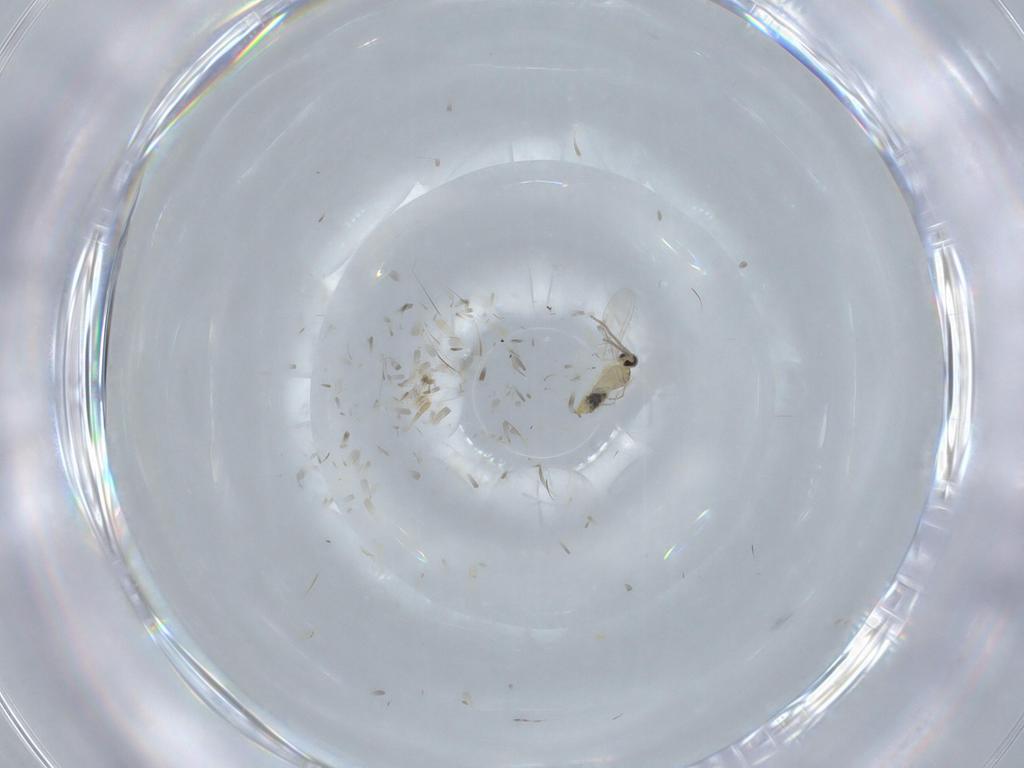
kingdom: Animalia
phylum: Arthropoda
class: Insecta
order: Diptera
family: Cecidomyiidae
